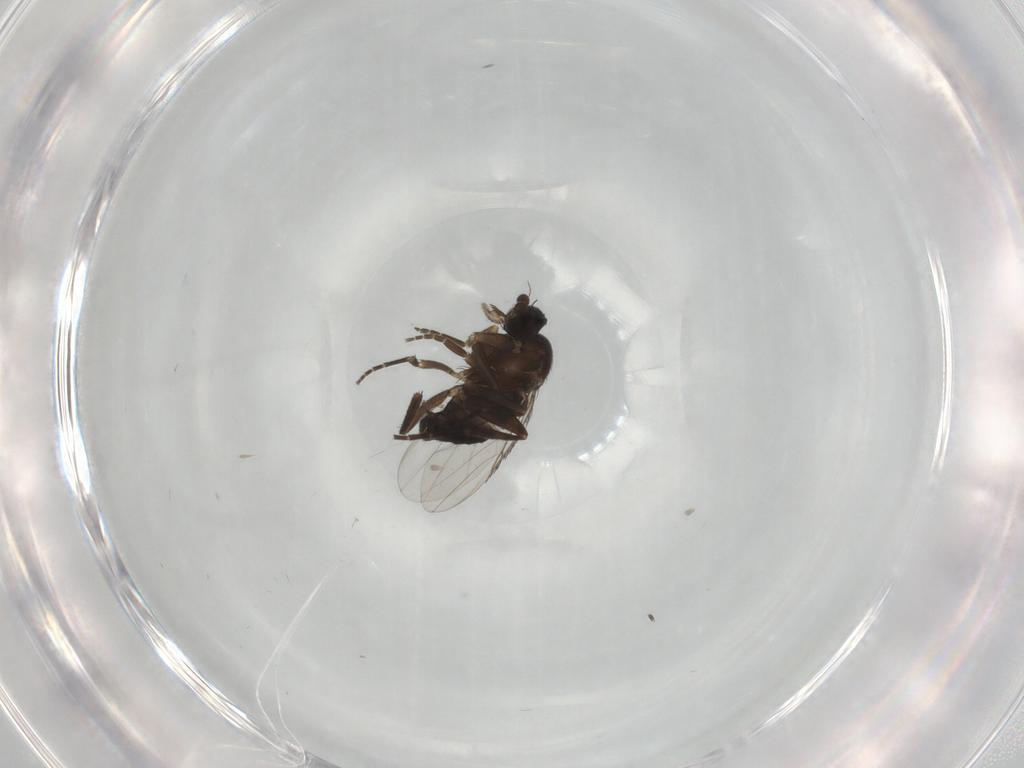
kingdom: Animalia
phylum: Arthropoda
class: Insecta
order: Diptera
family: Phoridae
